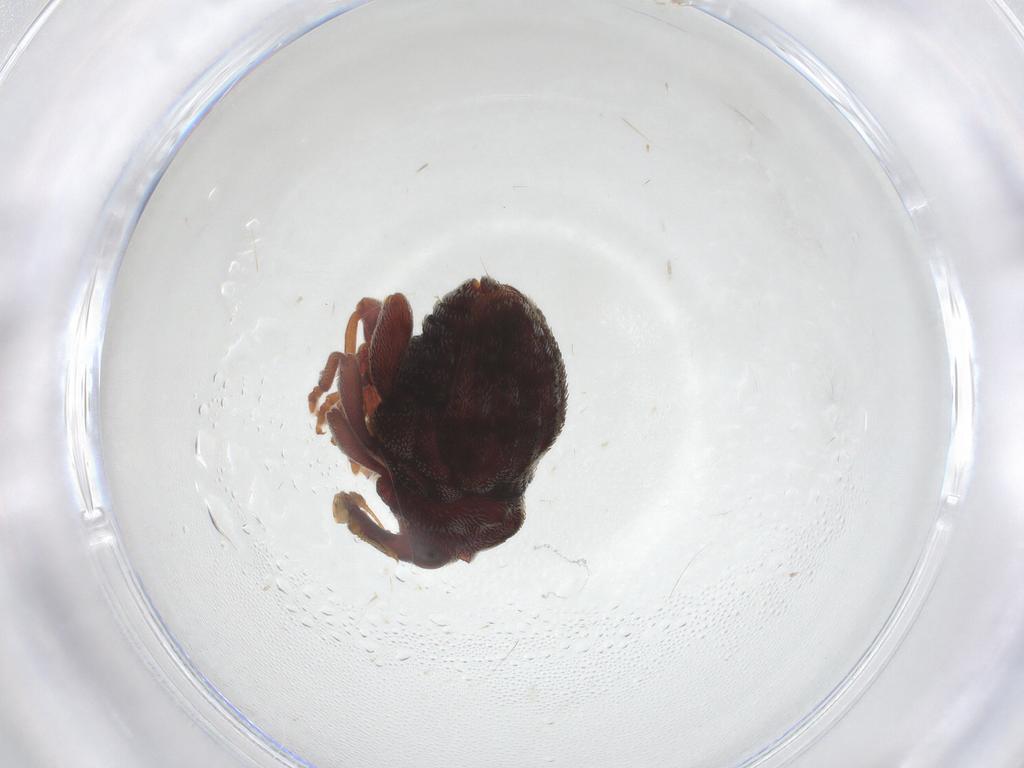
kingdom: Animalia
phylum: Arthropoda
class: Insecta
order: Coleoptera
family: Curculionidae
